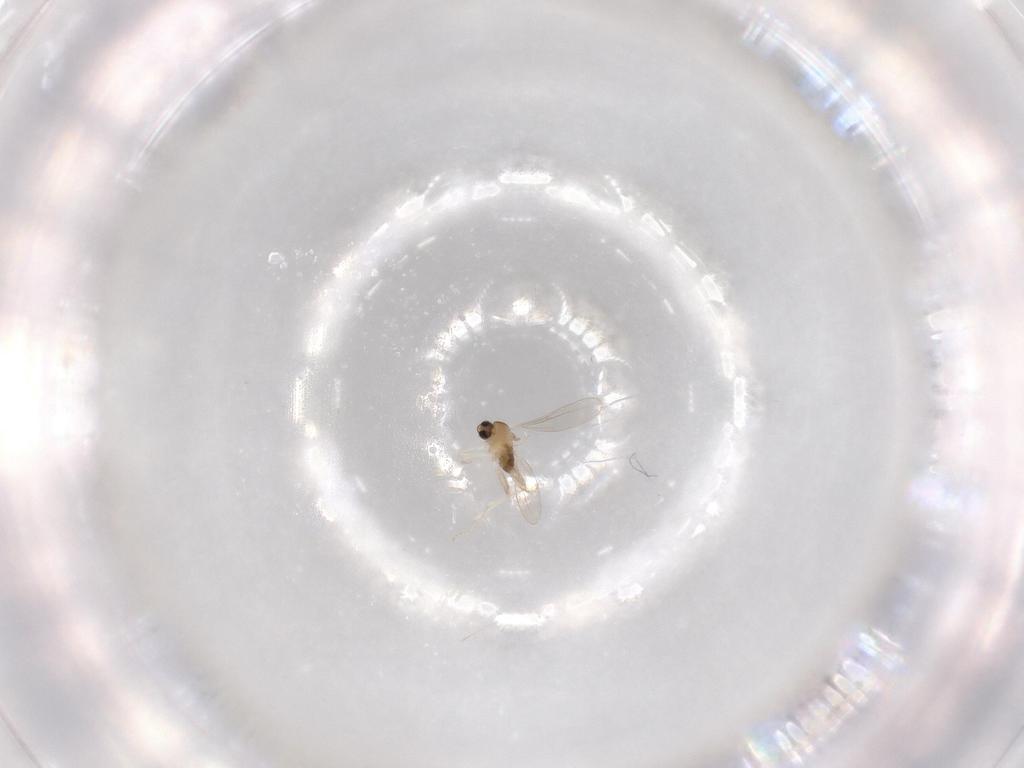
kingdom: Animalia
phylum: Arthropoda
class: Insecta
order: Diptera
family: Cecidomyiidae
